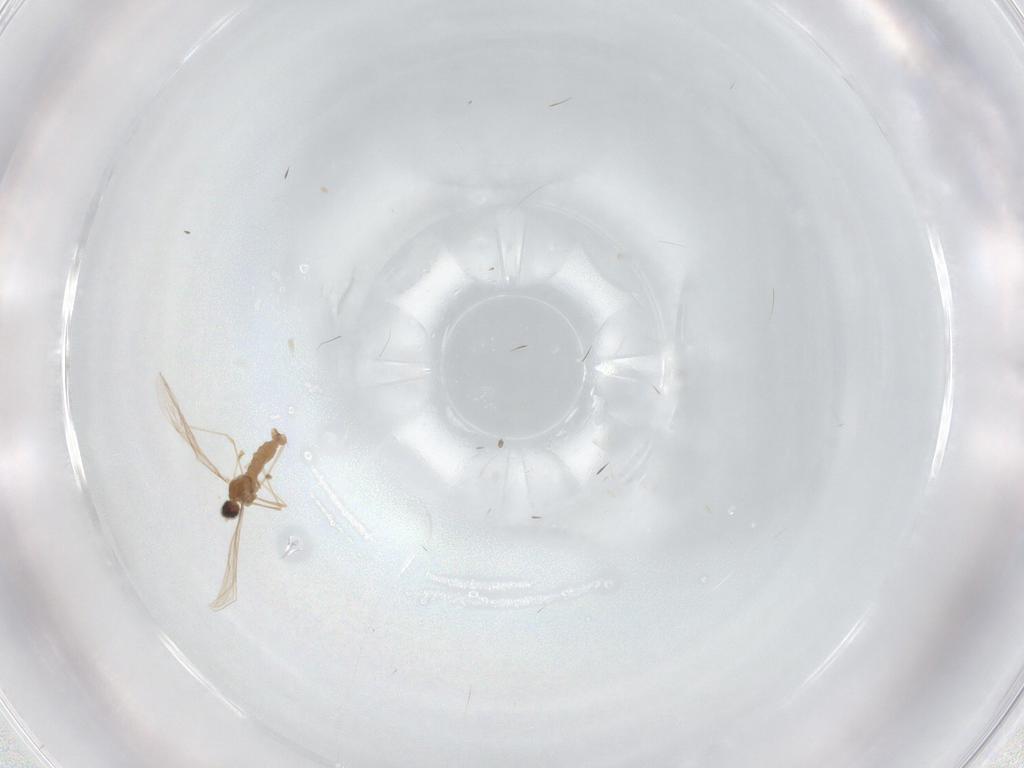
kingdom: Animalia
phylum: Arthropoda
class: Insecta
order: Diptera
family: Cecidomyiidae
